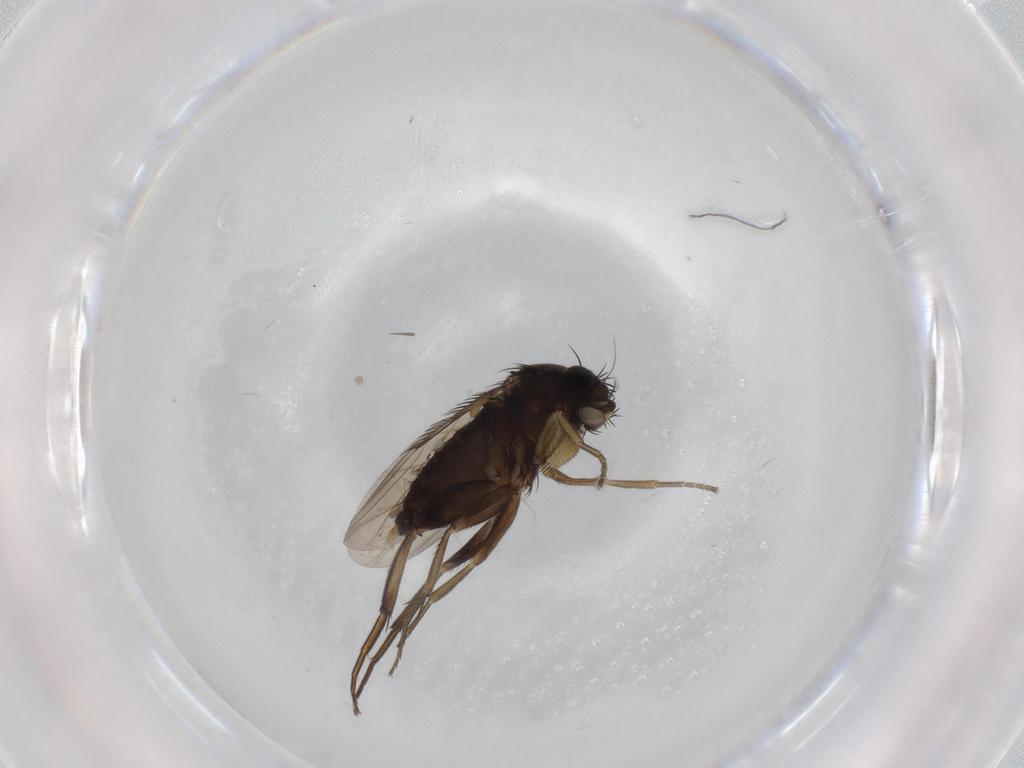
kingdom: Animalia
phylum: Arthropoda
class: Insecta
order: Diptera
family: Phoridae
